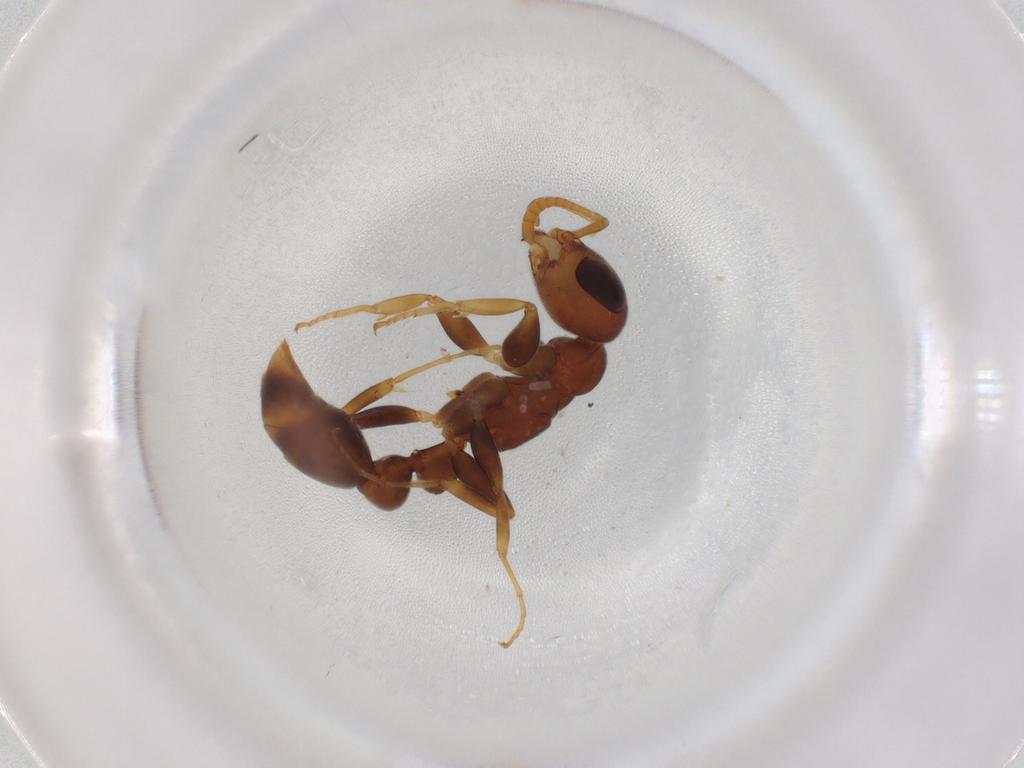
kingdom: Animalia
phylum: Arthropoda
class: Insecta
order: Hymenoptera
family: Formicidae
